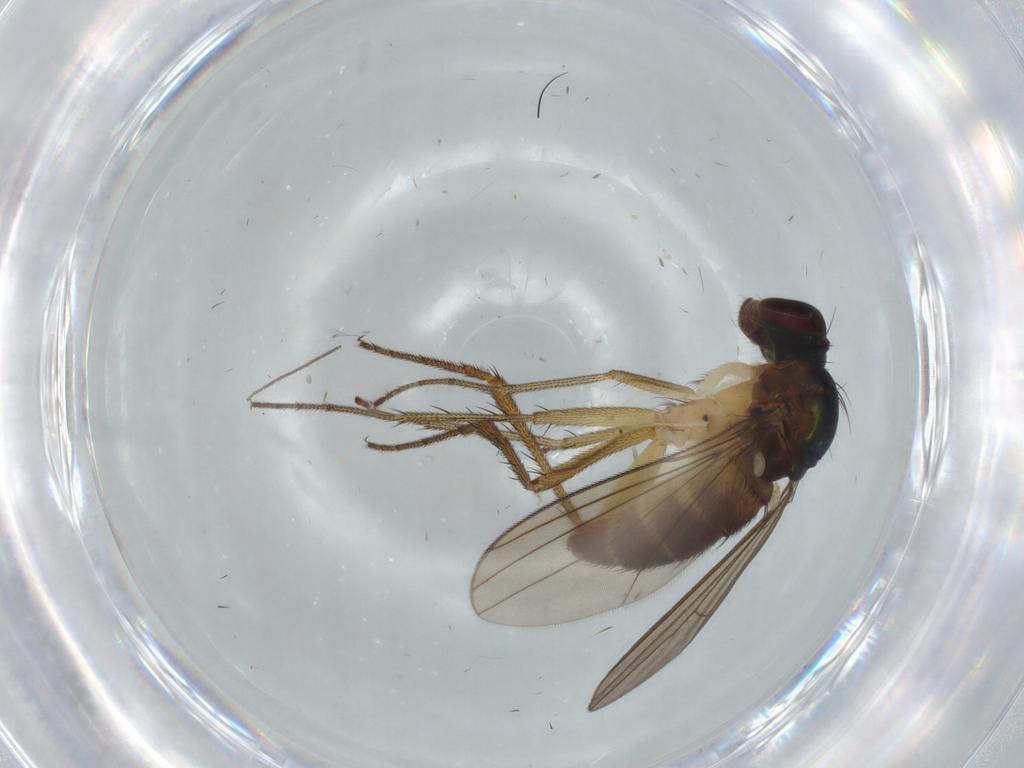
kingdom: Animalia
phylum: Arthropoda
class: Insecta
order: Diptera
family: Dolichopodidae
